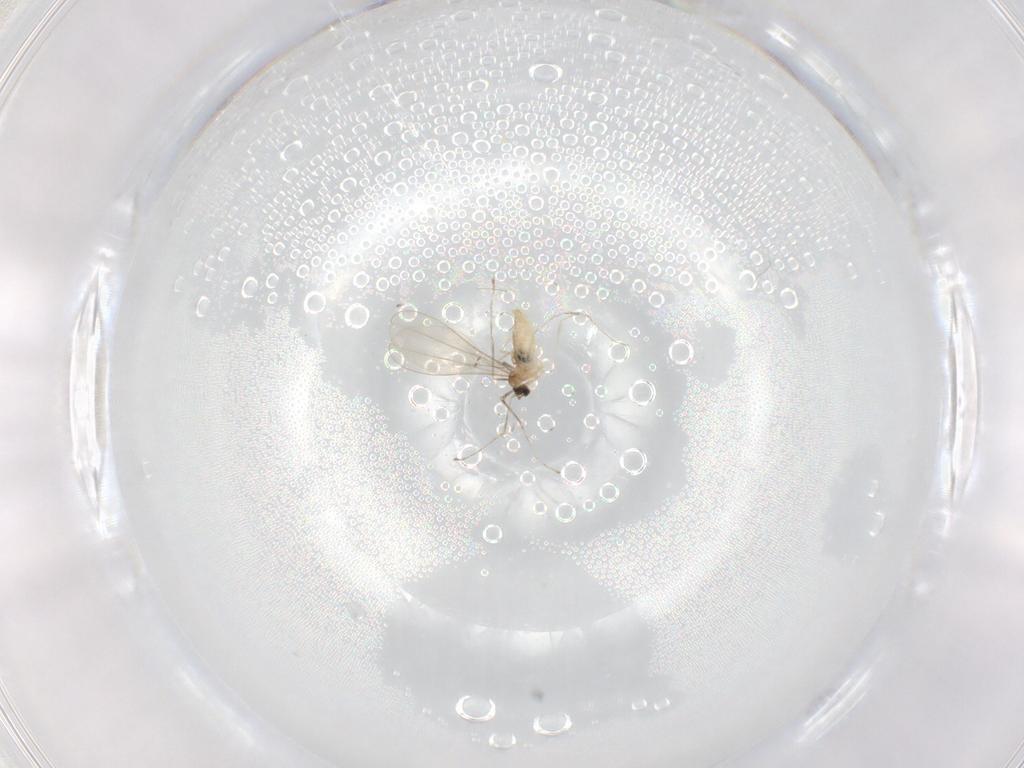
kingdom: Animalia
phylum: Arthropoda
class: Insecta
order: Diptera
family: Cecidomyiidae
